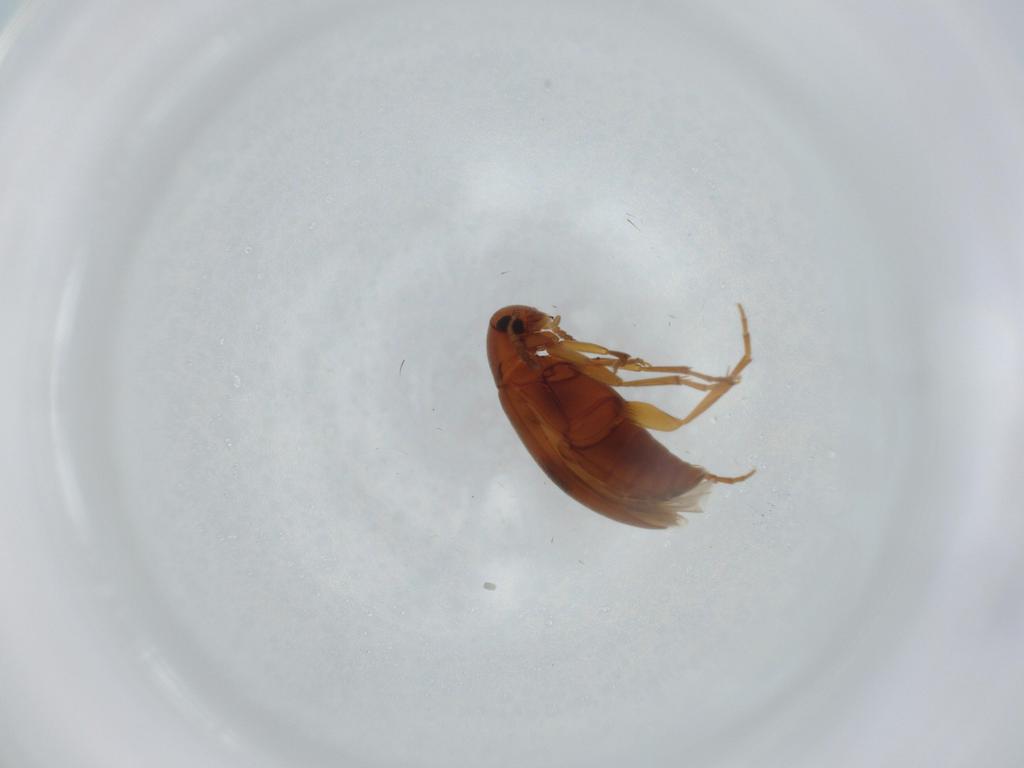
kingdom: Animalia
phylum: Arthropoda
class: Insecta
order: Coleoptera
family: Scraptiidae
